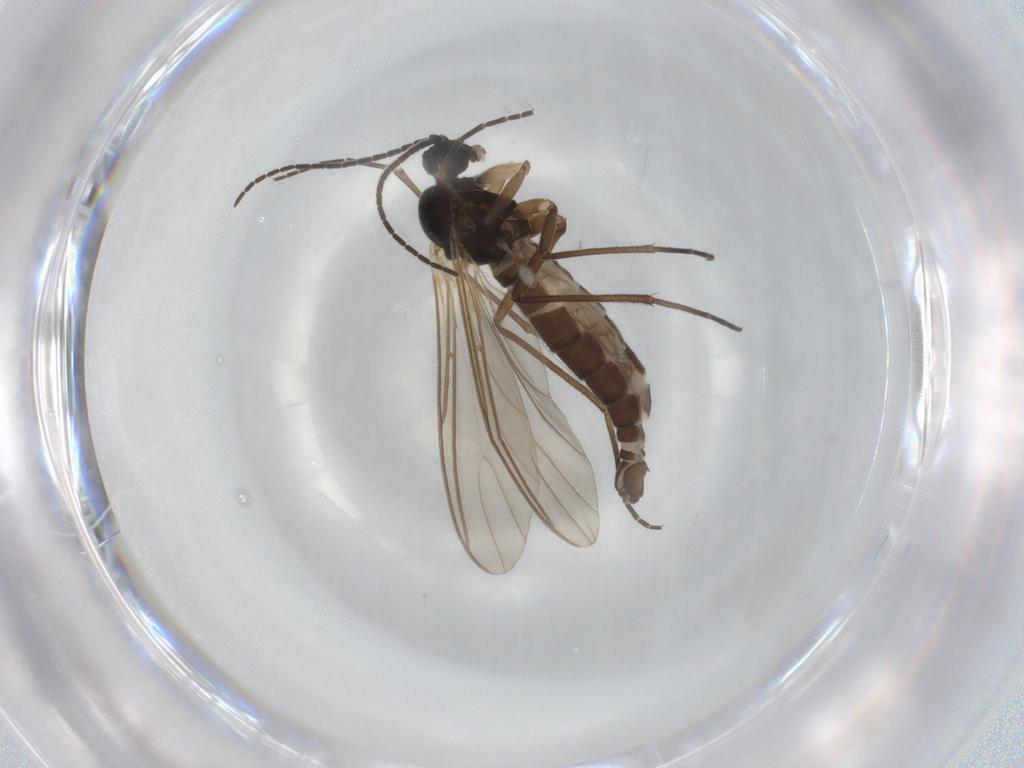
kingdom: Animalia
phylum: Arthropoda
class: Insecta
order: Diptera
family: Sciaridae
